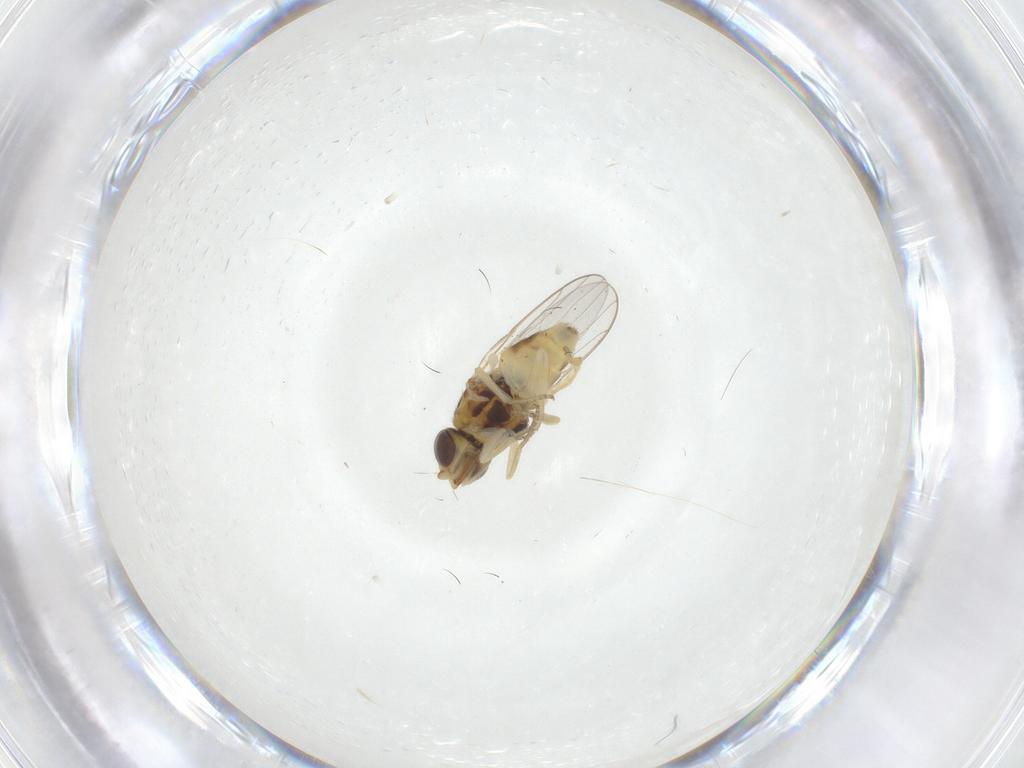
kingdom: Animalia
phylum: Arthropoda
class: Insecta
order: Diptera
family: Chloropidae
